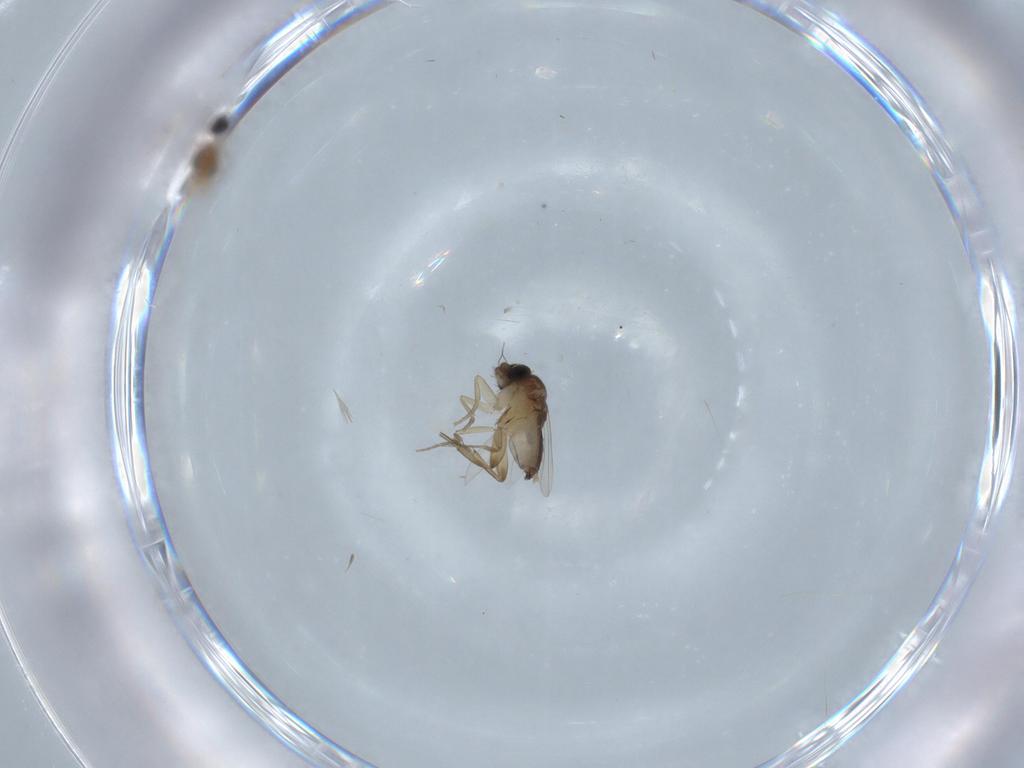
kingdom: Animalia
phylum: Arthropoda
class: Insecta
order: Diptera
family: Cecidomyiidae
